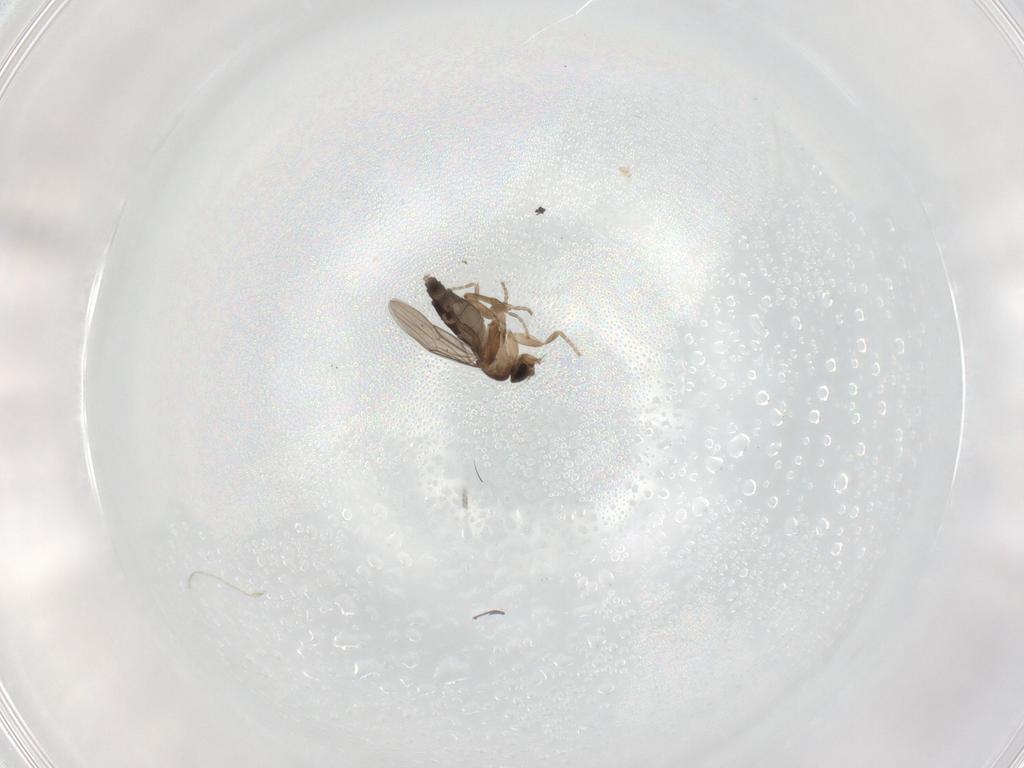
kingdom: Animalia
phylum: Arthropoda
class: Insecta
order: Diptera
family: Phoridae
